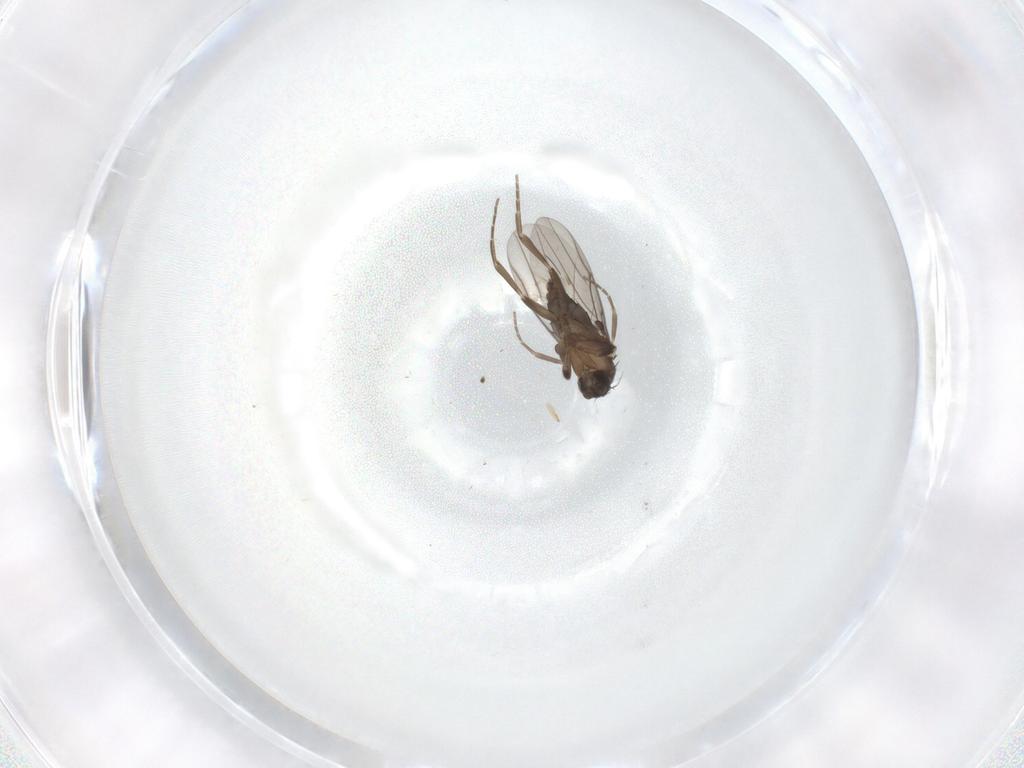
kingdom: Animalia
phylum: Arthropoda
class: Insecta
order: Diptera
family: Phoridae
